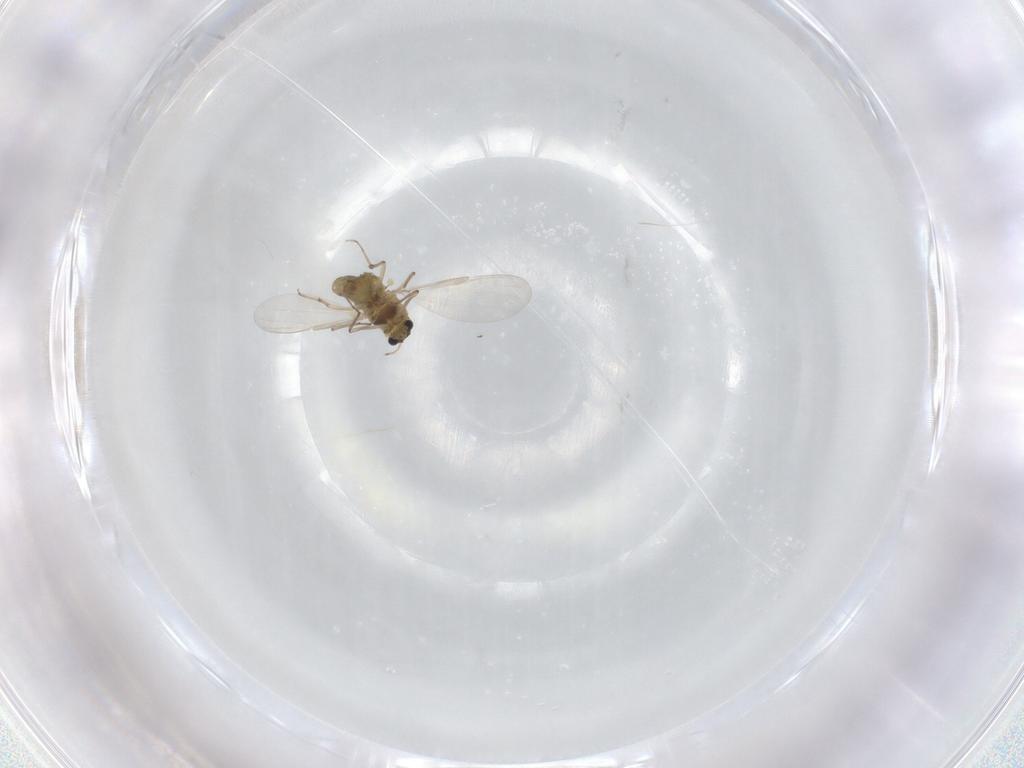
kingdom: Animalia
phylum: Arthropoda
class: Insecta
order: Diptera
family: Chironomidae
